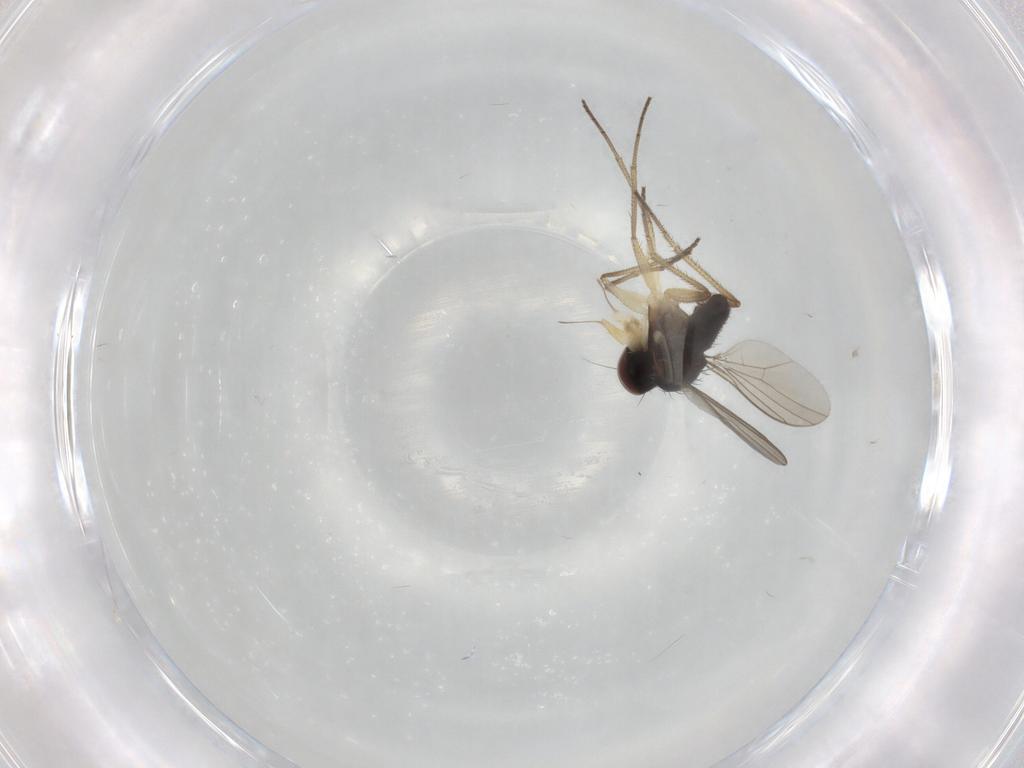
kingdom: Animalia
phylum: Arthropoda
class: Insecta
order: Diptera
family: Dolichopodidae
